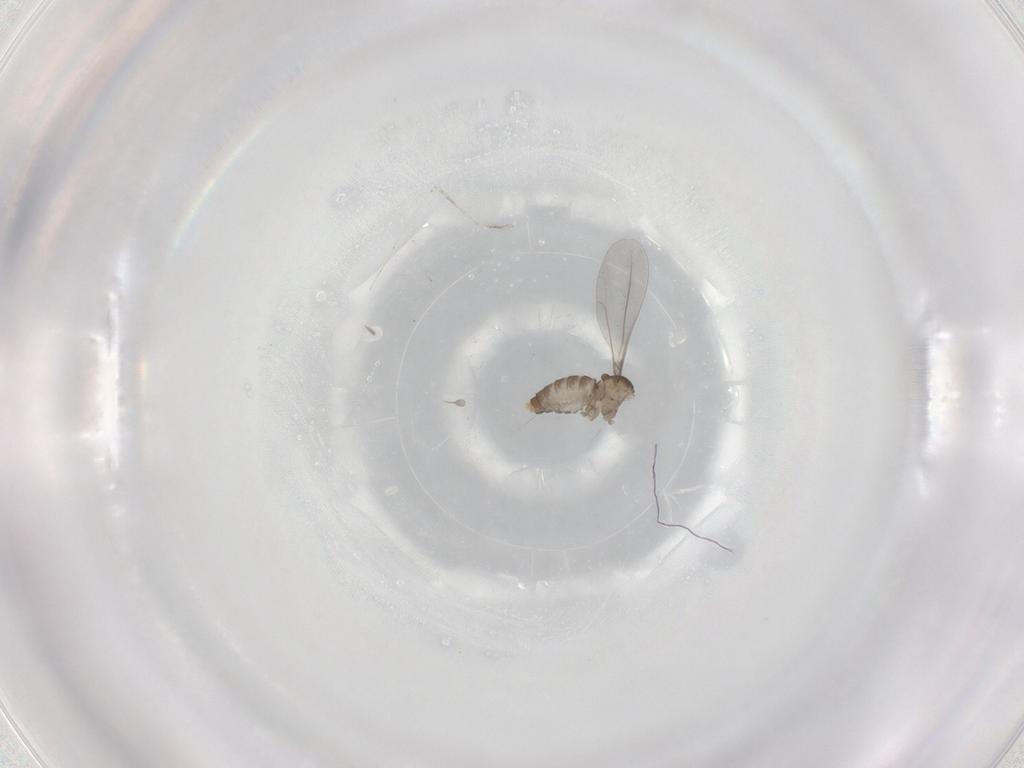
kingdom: Animalia
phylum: Arthropoda
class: Insecta
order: Diptera
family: Cecidomyiidae
